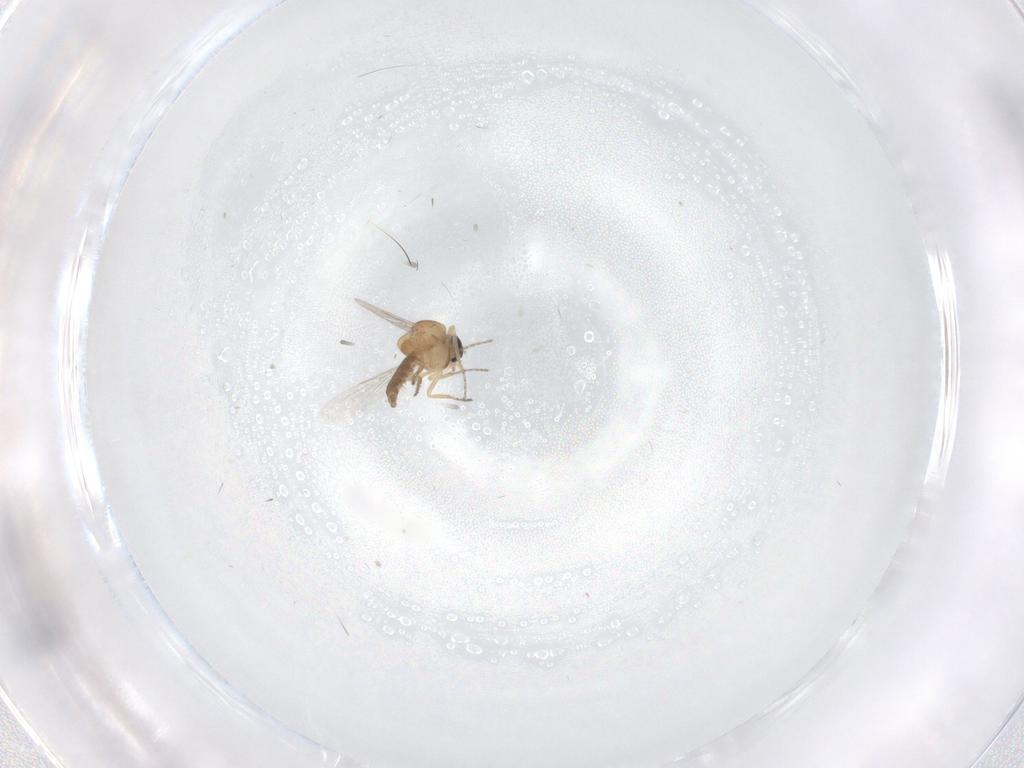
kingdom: Animalia
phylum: Arthropoda
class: Insecta
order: Diptera
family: Ceratopogonidae
